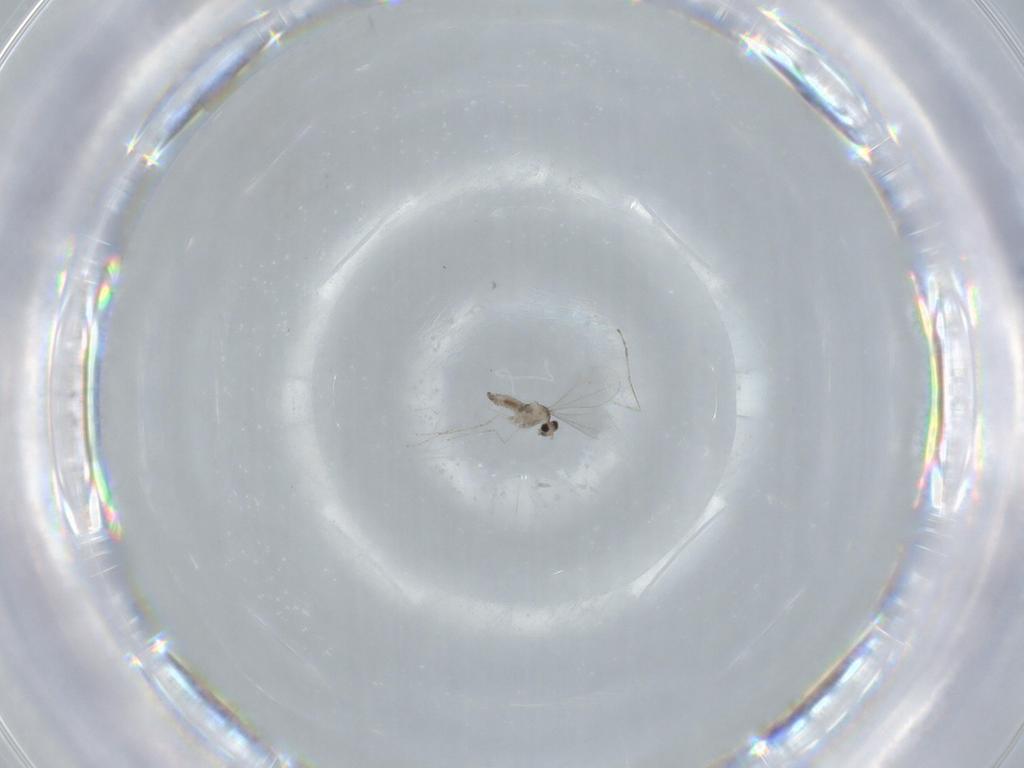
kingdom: Animalia
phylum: Arthropoda
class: Insecta
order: Diptera
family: Cecidomyiidae
